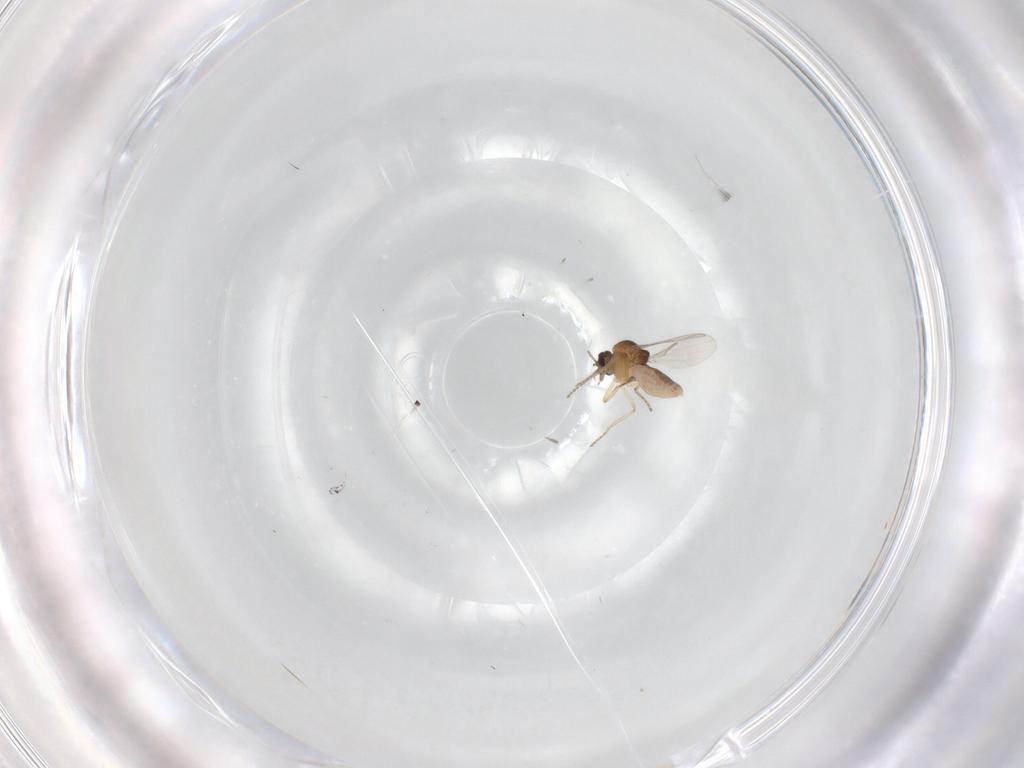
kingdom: Animalia
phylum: Arthropoda
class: Insecta
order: Diptera
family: Ceratopogonidae
